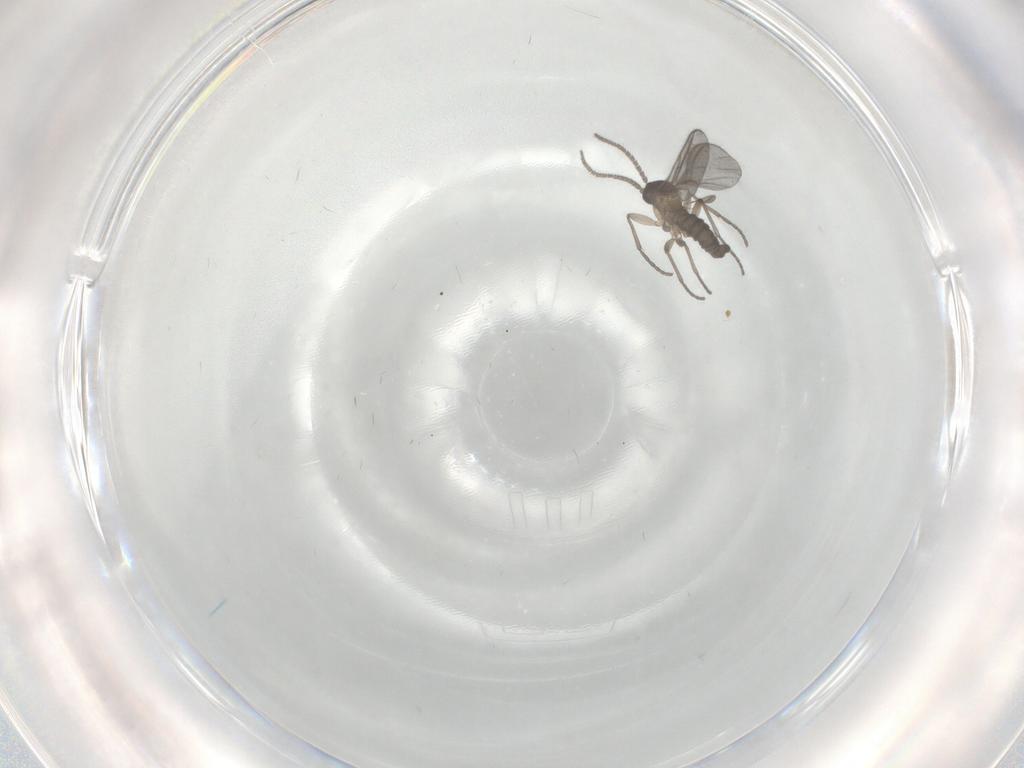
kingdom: Animalia
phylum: Arthropoda
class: Insecta
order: Diptera
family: Sciaridae
